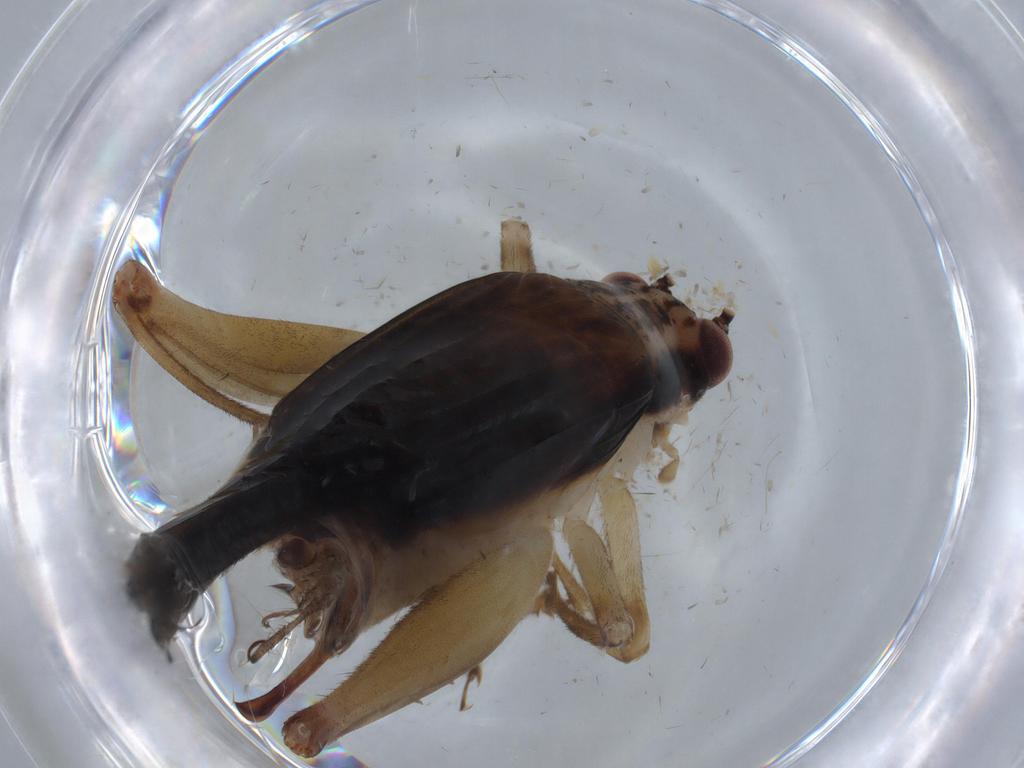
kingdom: Animalia
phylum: Arthropoda
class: Insecta
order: Orthoptera
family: Trigonidiidae
